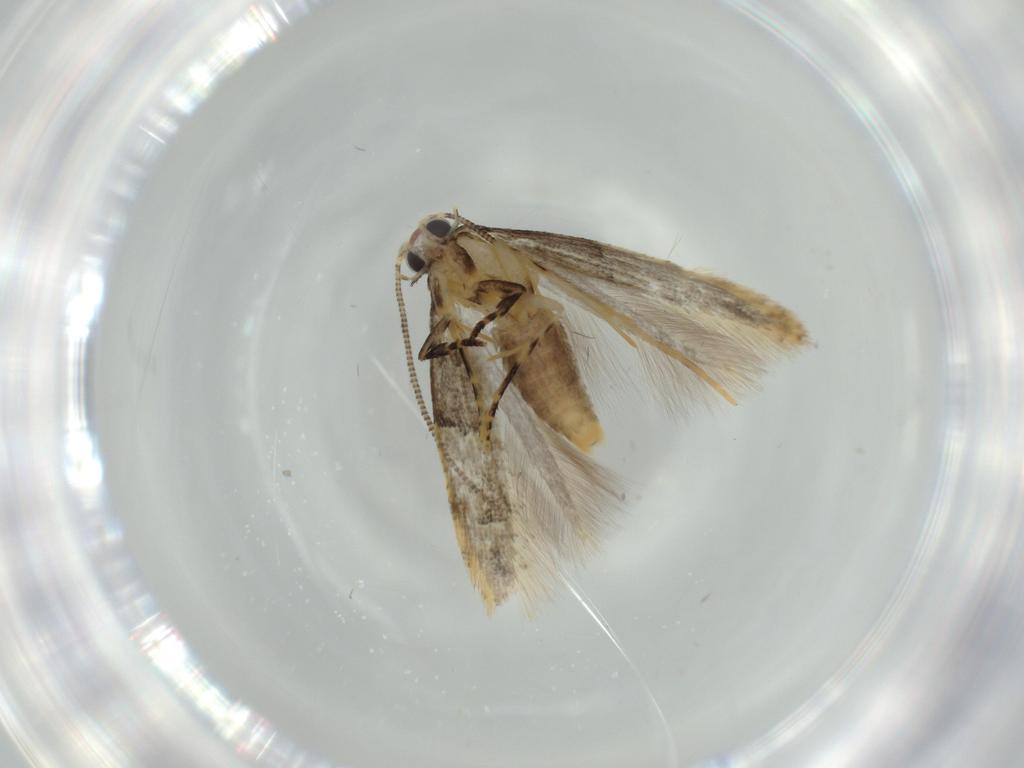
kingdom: Animalia
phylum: Arthropoda
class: Insecta
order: Lepidoptera
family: Tineidae
